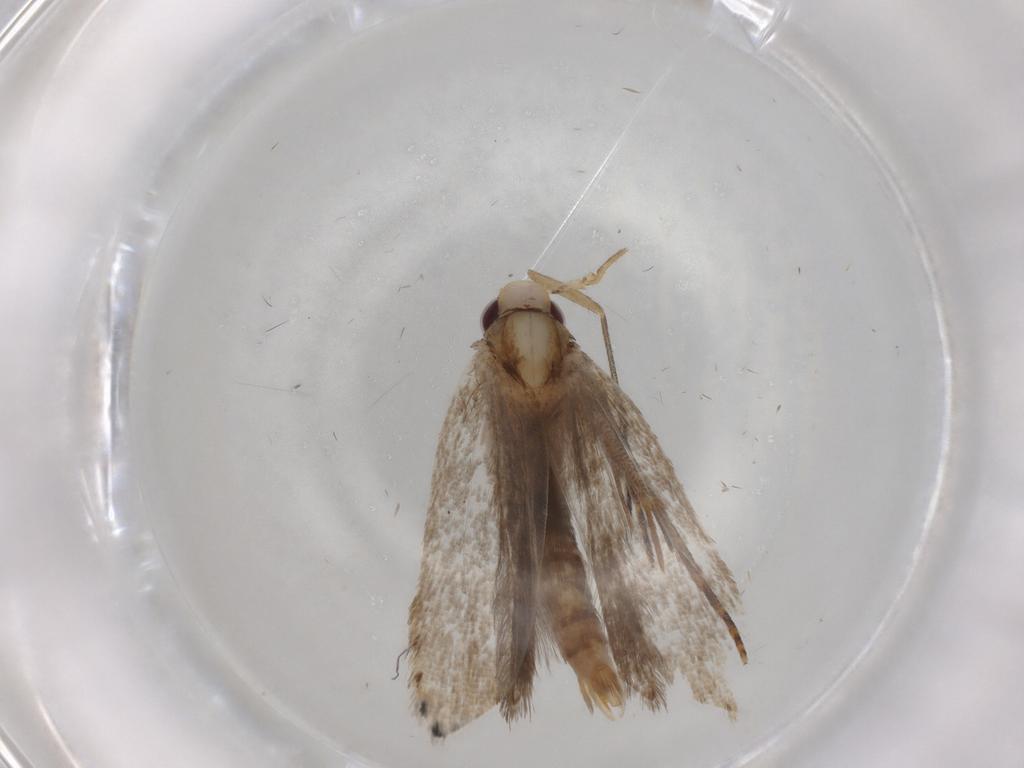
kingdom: Animalia
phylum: Arthropoda
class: Insecta
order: Lepidoptera
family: Gelechiidae
